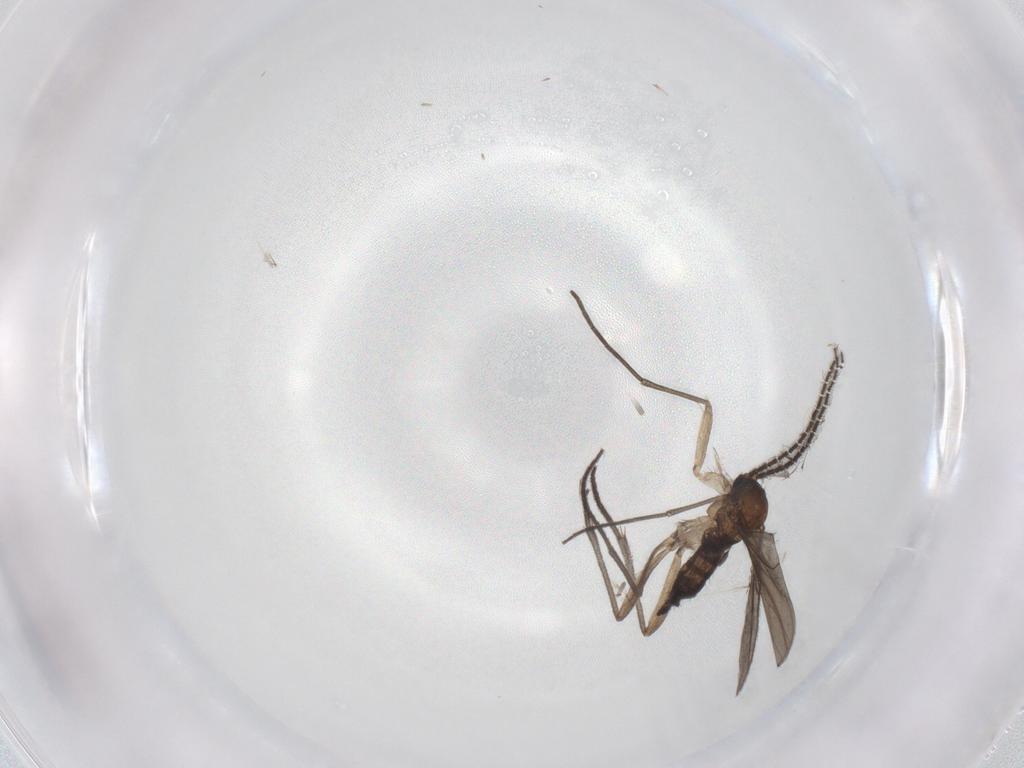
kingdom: Animalia
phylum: Arthropoda
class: Insecta
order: Diptera
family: Sciaridae
